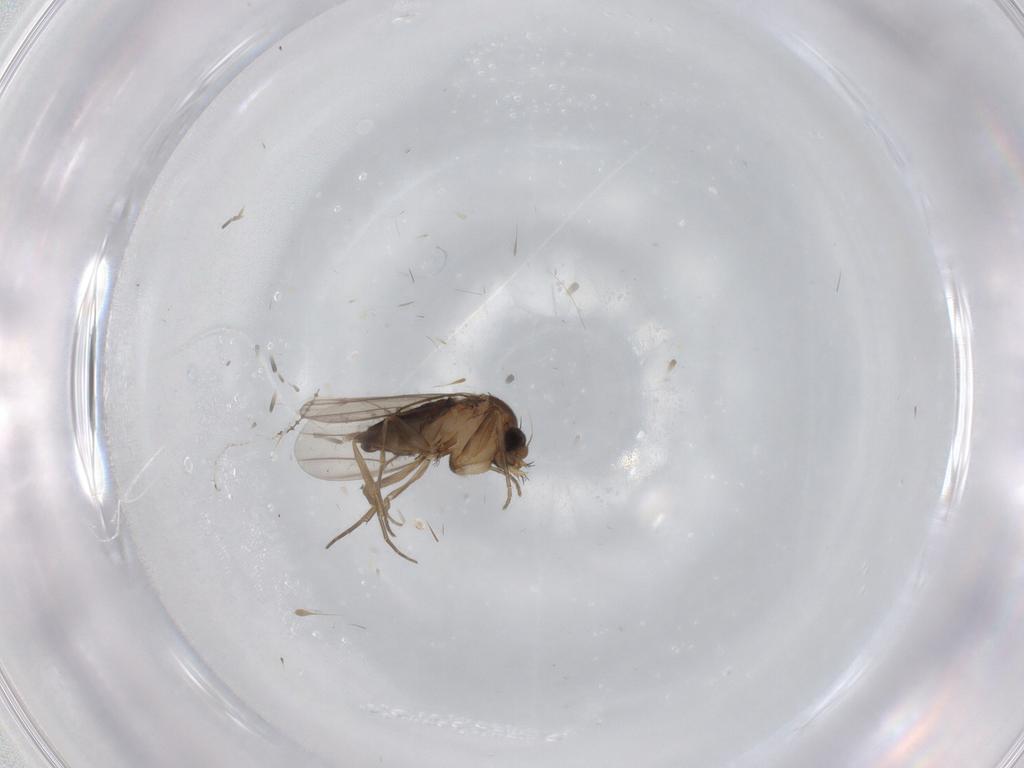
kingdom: Animalia
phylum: Arthropoda
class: Insecta
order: Diptera
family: Phoridae
